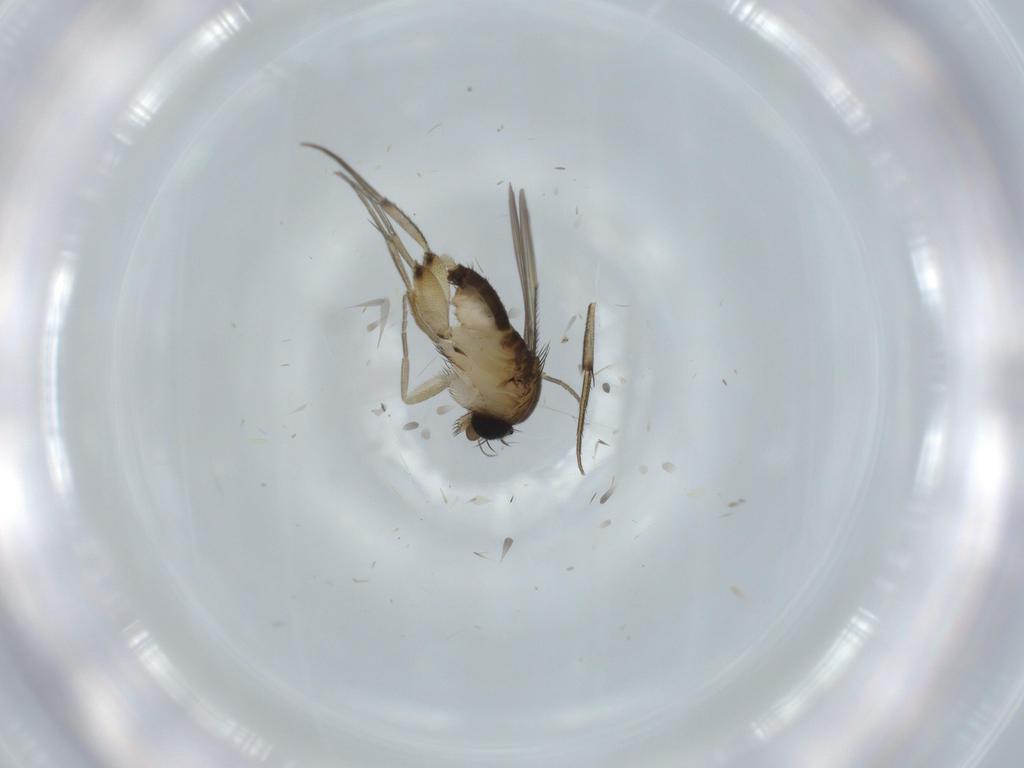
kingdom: Animalia
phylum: Arthropoda
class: Insecta
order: Diptera
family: Phoridae
